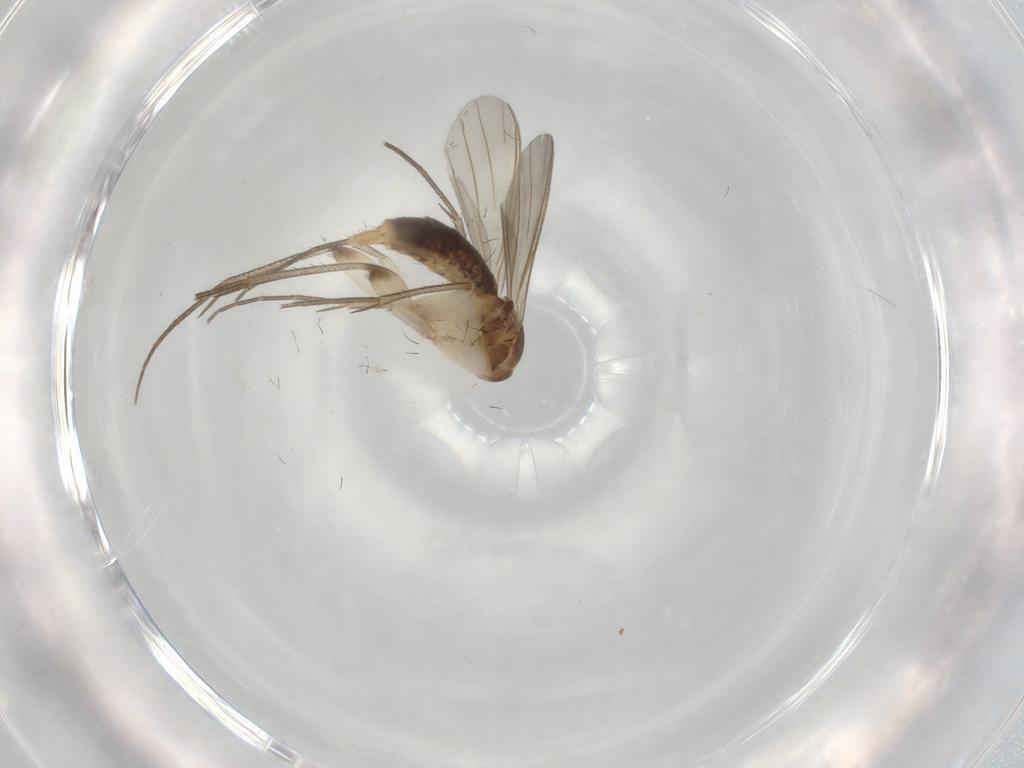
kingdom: Animalia
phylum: Arthropoda
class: Insecta
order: Diptera
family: Mycetophilidae
